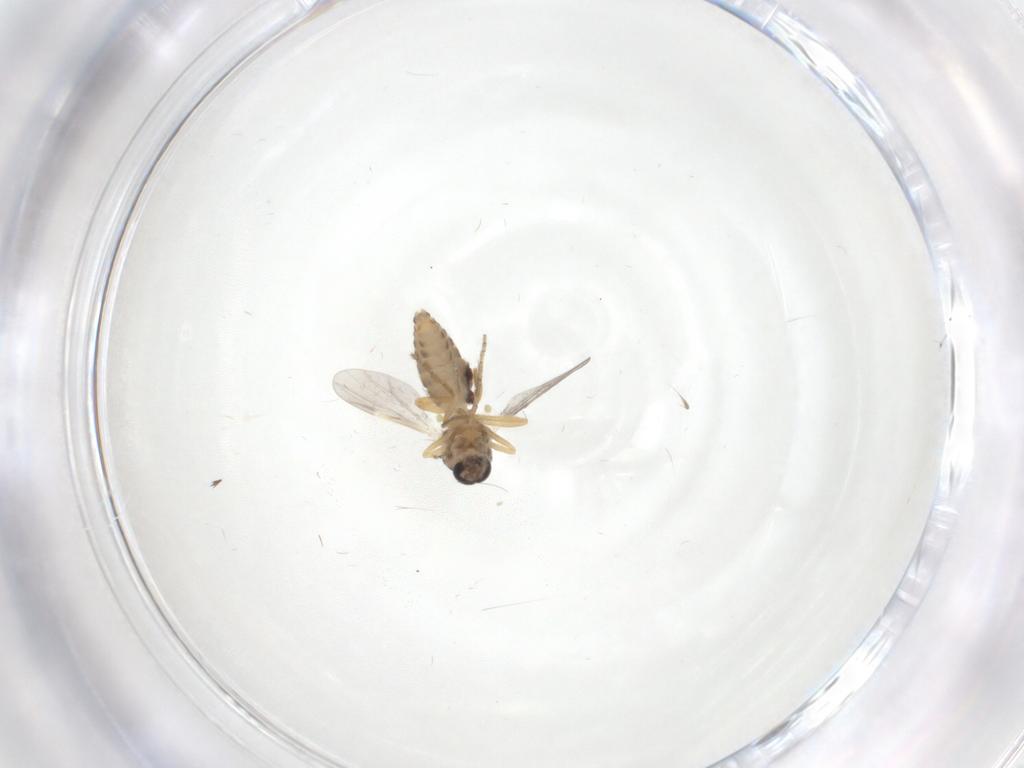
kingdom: Animalia
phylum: Arthropoda
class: Insecta
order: Diptera
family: Ceratopogonidae
